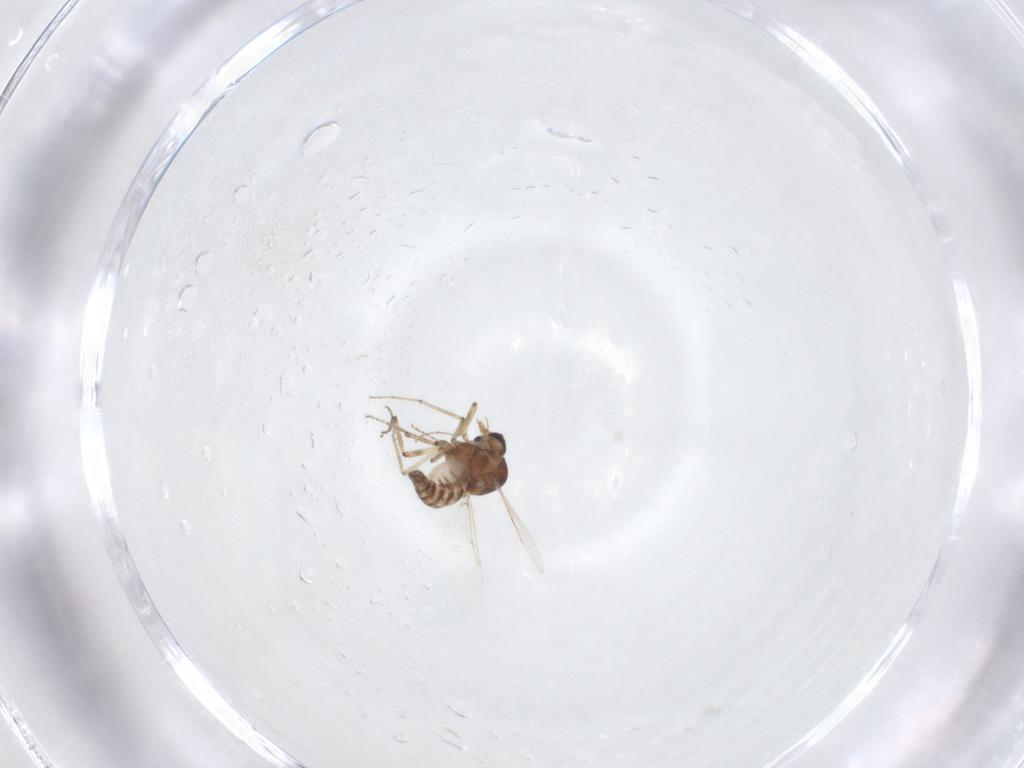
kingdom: Animalia
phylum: Arthropoda
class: Insecta
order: Diptera
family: Ceratopogonidae
